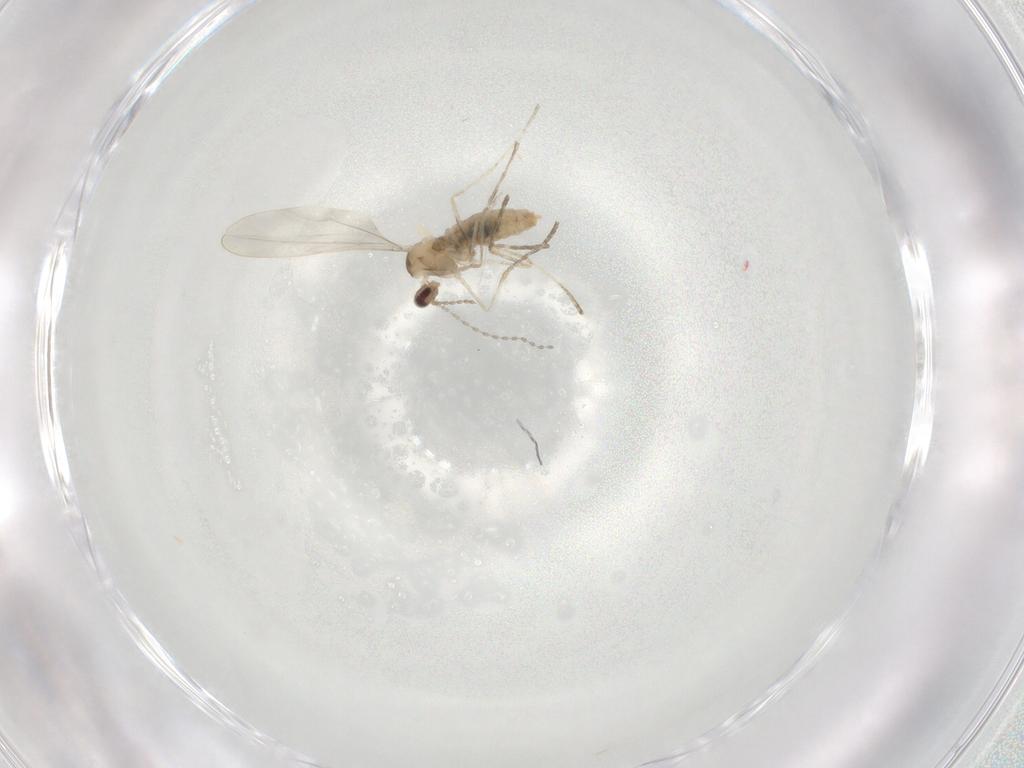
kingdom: Animalia
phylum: Arthropoda
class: Insecta
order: Diptera
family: Cecidomyiidae
